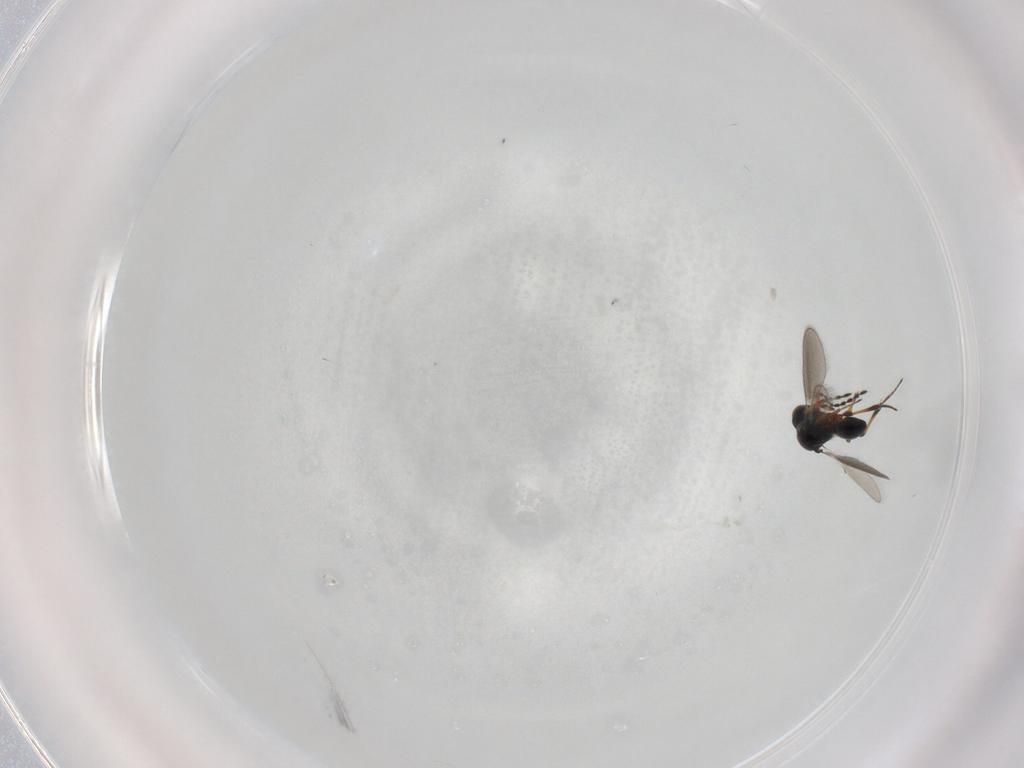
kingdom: Animalia
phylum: Arthropoda
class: Insecta
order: Hymenoptera
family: Platygastridae
